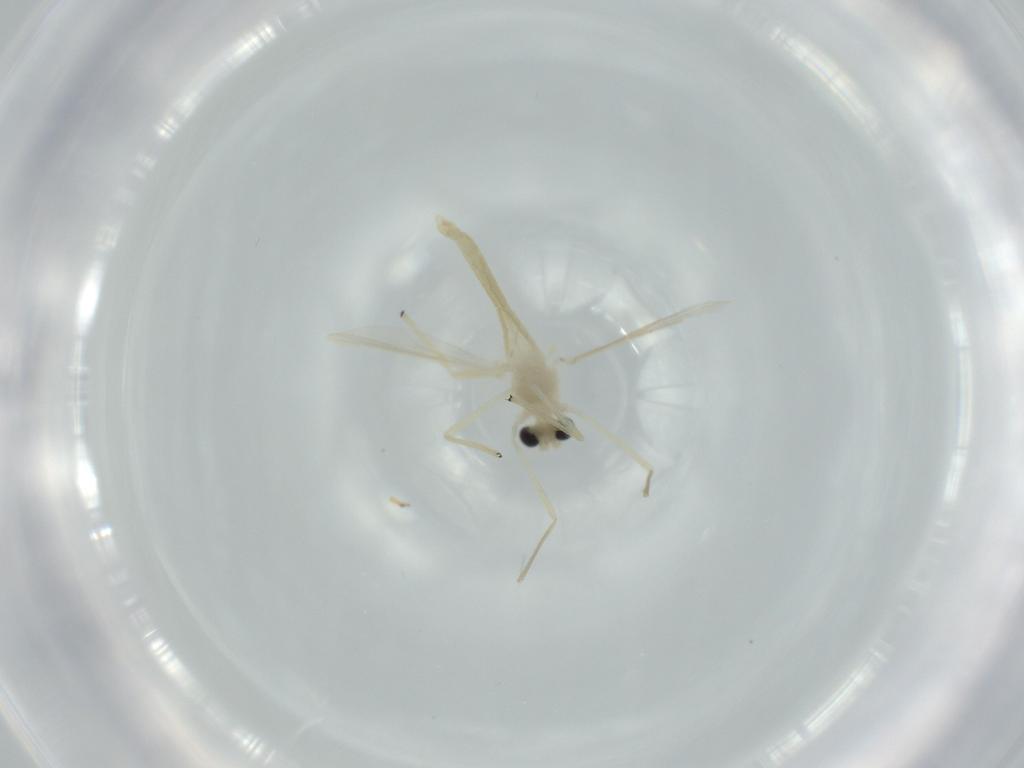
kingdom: Animalia
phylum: Arthropoda
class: Insecta
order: Diptera
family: Chironomidae
